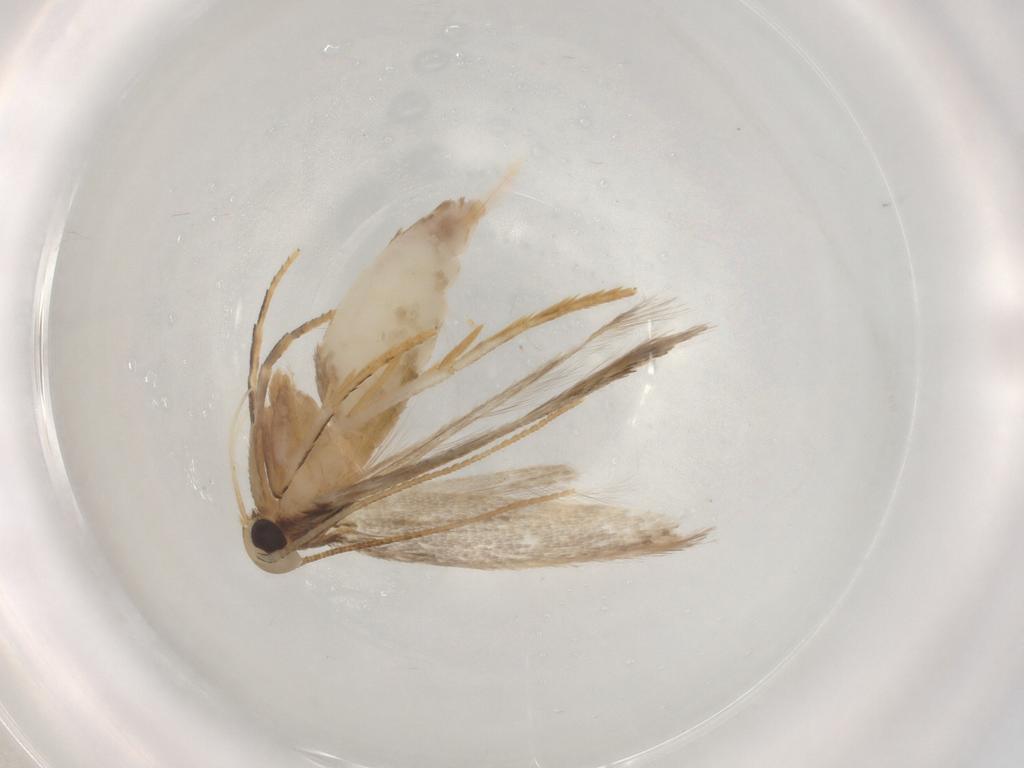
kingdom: Animalia
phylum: Arthropoda
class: Insecta
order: Lepidoptera
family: Coleophoridae
